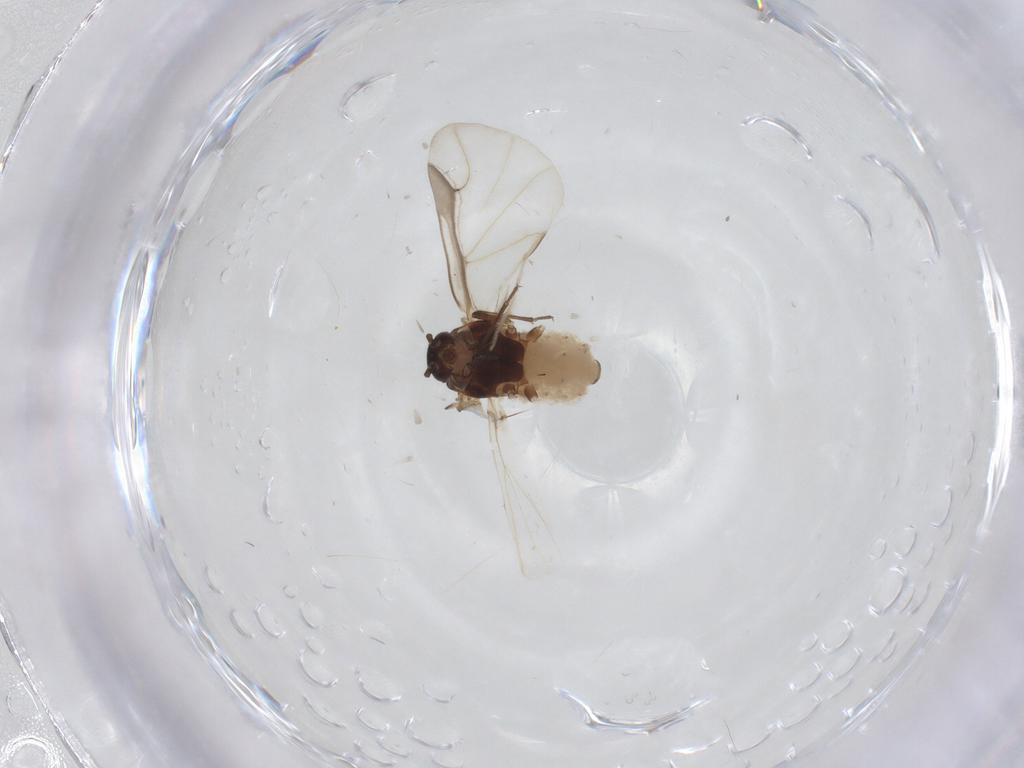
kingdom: Animalia
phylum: Arthropoda
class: Insecta
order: Hemiptera
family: Aphididae
